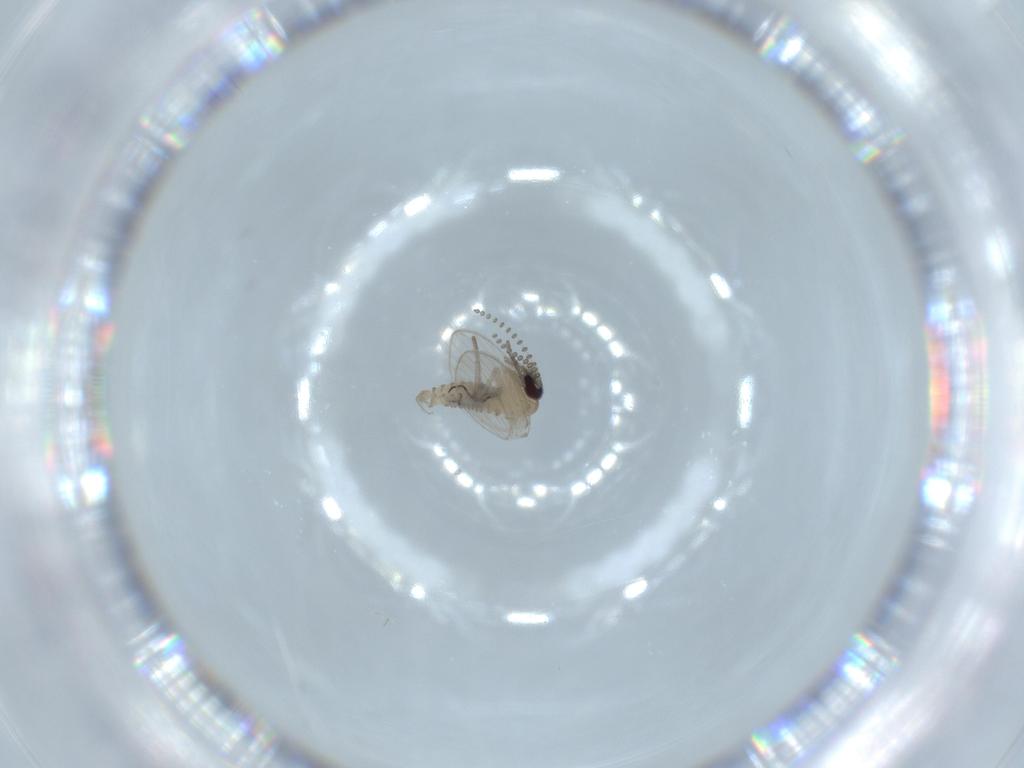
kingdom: Animalia
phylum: Arthropoda
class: Insecta
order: Diptera
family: Psychodidae
